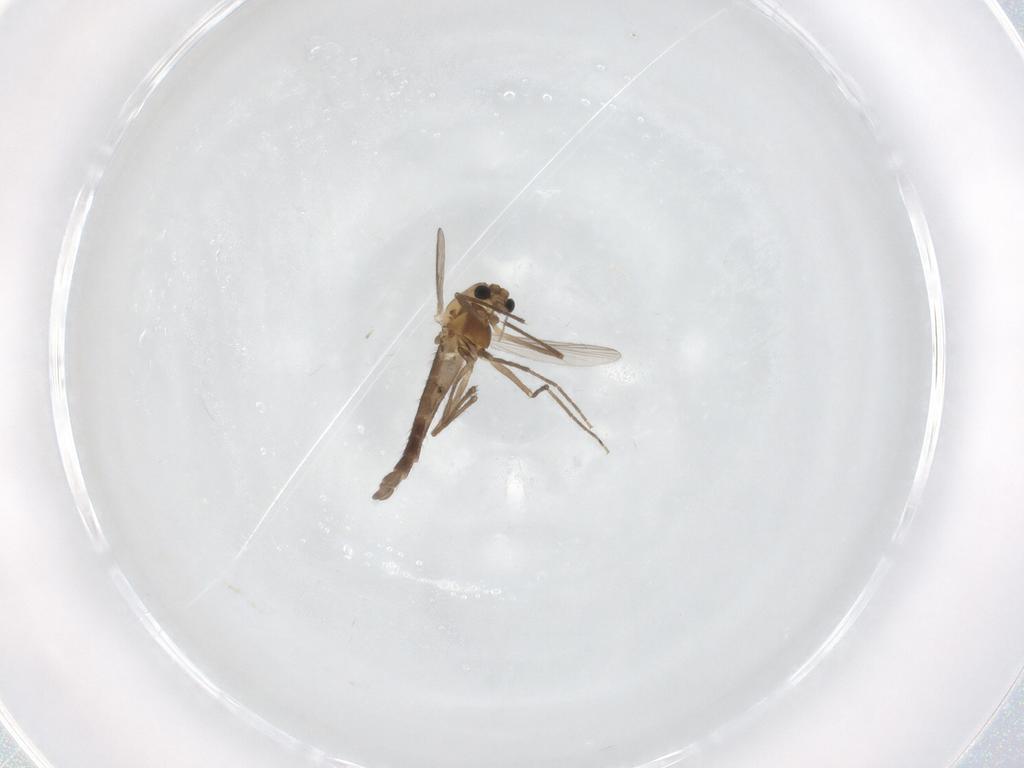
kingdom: Animalia
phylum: Arthropoda
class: Insecta
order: Diptera
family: Chironomidae
